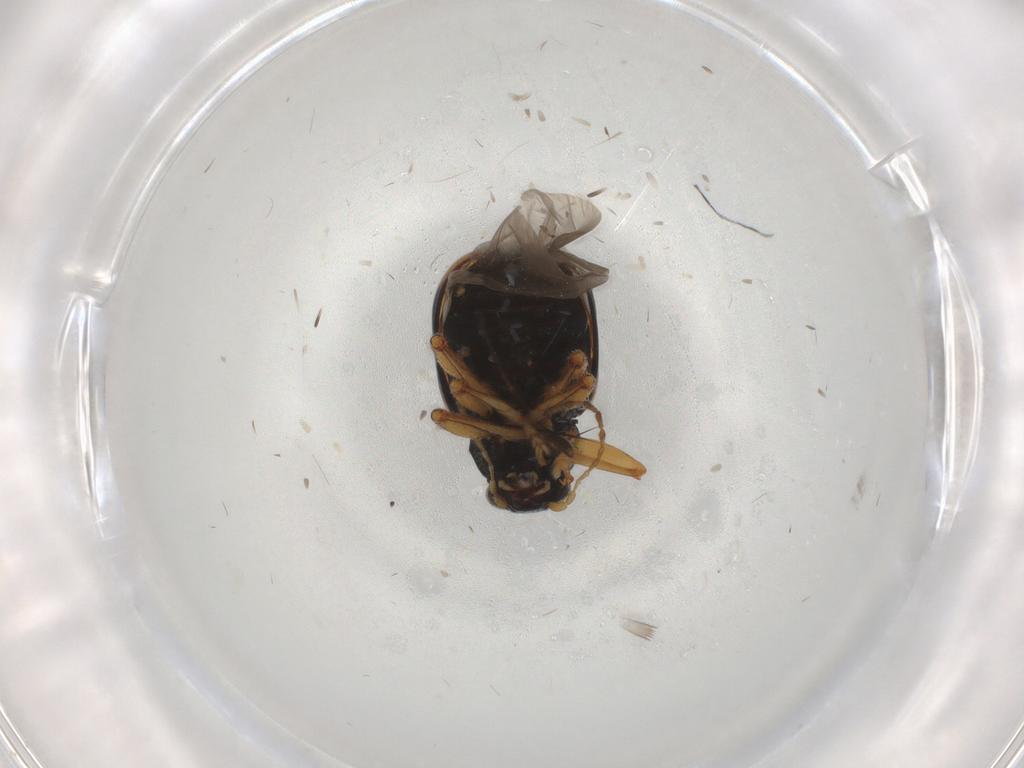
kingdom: Animalia
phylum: Arthropoda
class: Insecta
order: Coleoptera
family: Chrysomelidae
